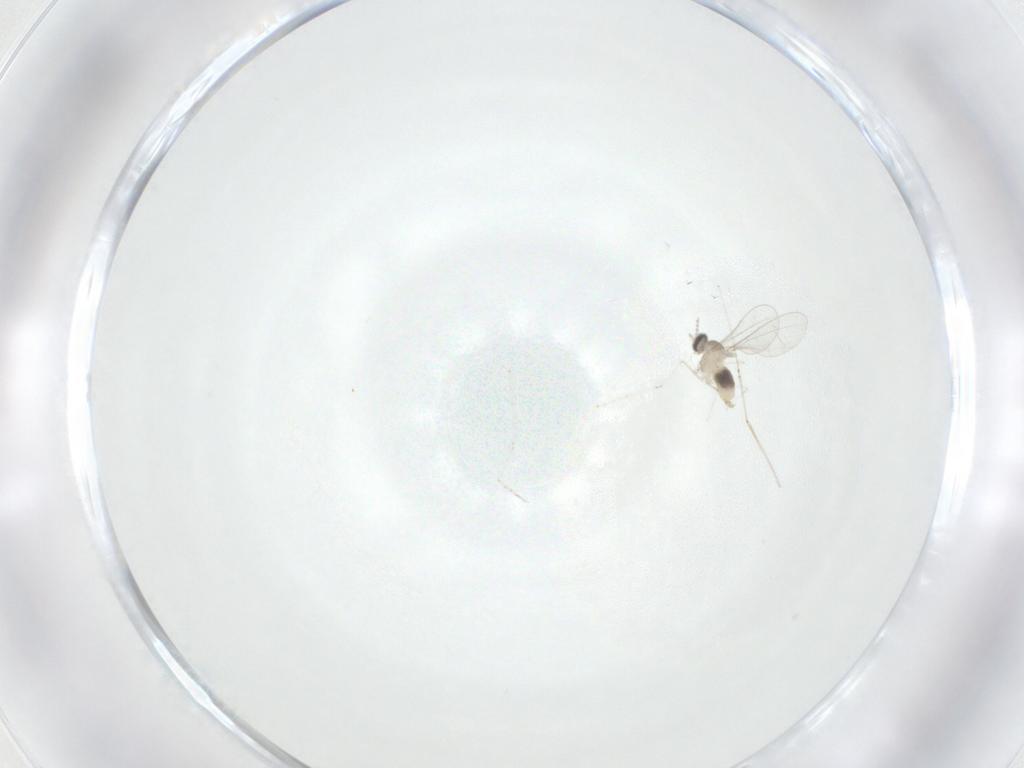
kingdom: Animalia
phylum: Arthropoda
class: Insecta
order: Diptera
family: Cecidomyiidae
